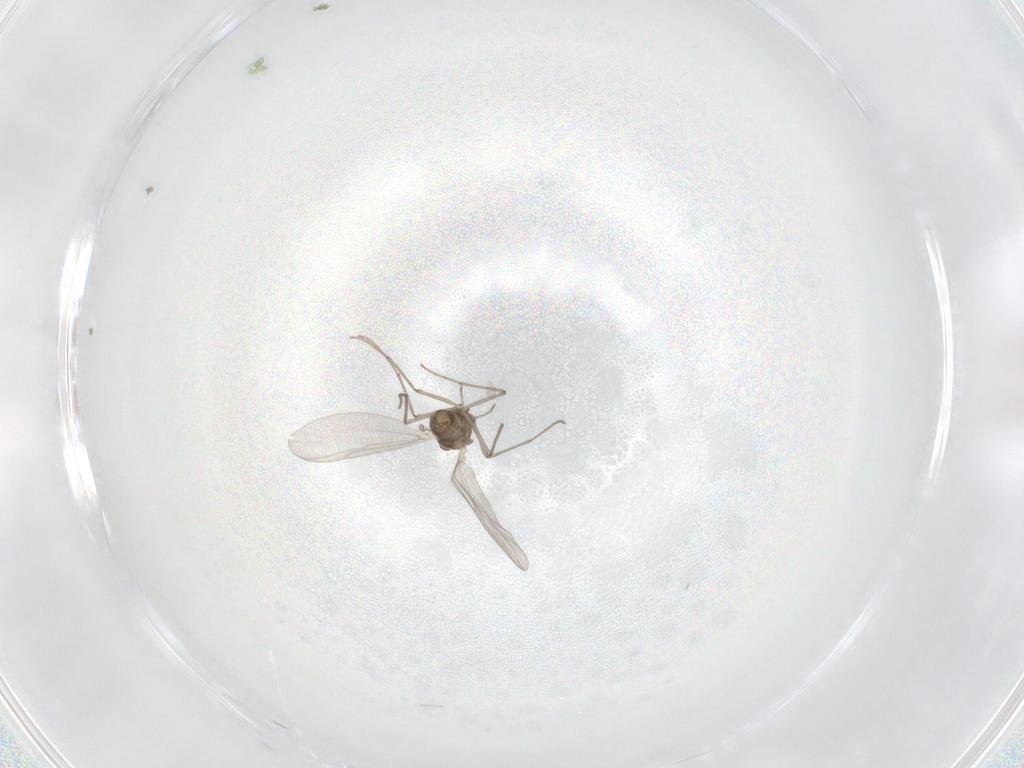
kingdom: Animalia
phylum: Arthropoda
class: Insecta
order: Diptera
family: Chironomidae
